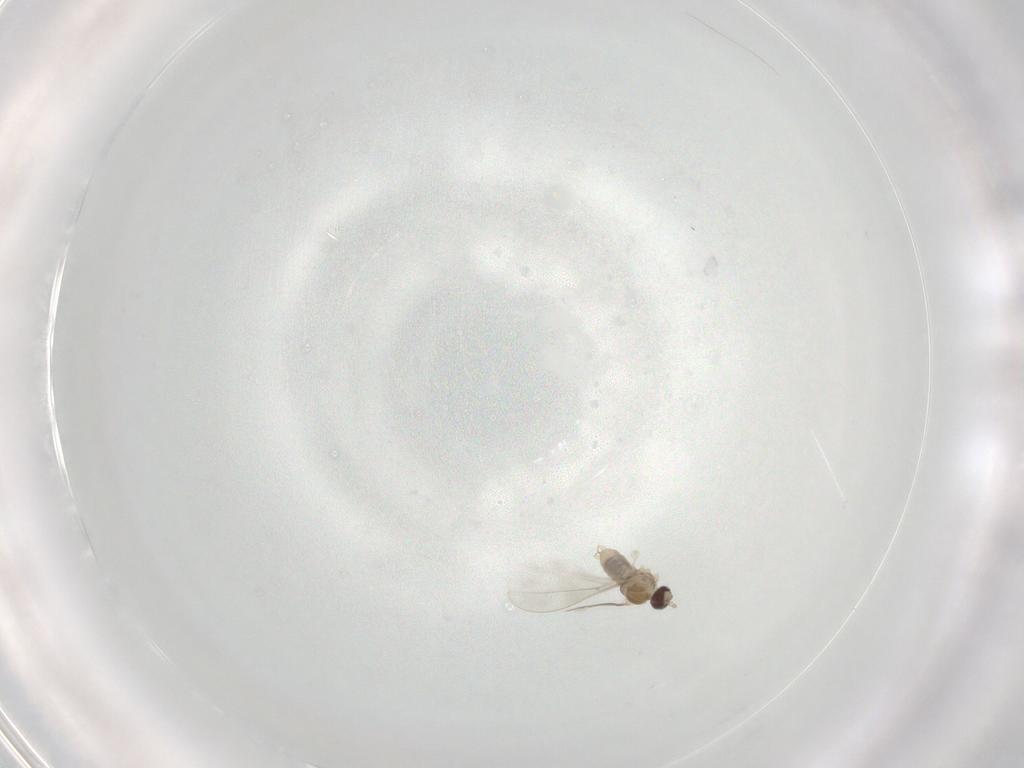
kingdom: Animalia
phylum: Arthropoda
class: Insecta
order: Diptera
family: Cecidomyiidae
